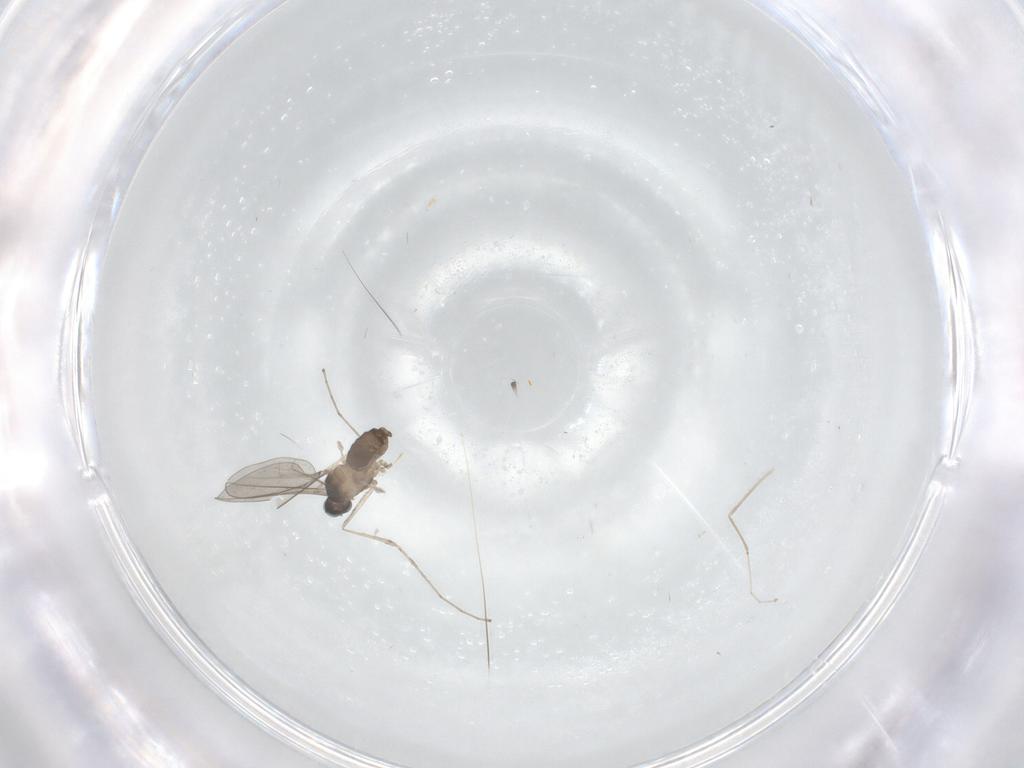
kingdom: Animalia
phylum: Arthropoda
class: Insecta
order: Diptera
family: Cecidomyiidae
